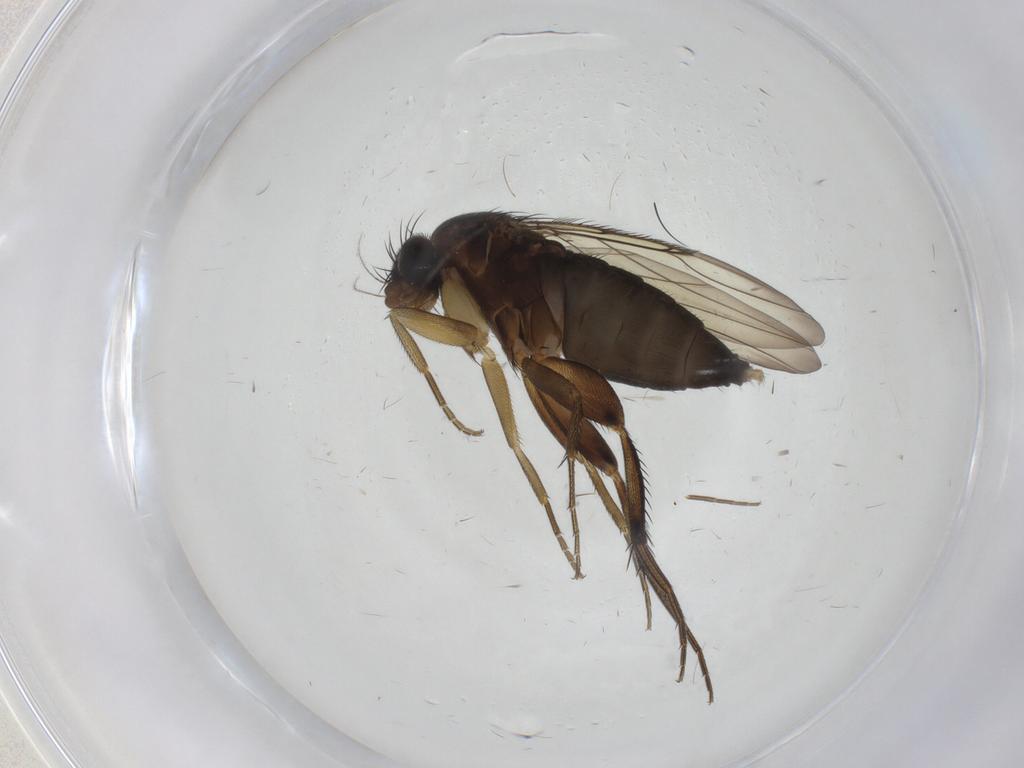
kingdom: Animalia
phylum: Arthropoda
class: Insecta
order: Diptera
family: Phoridae
